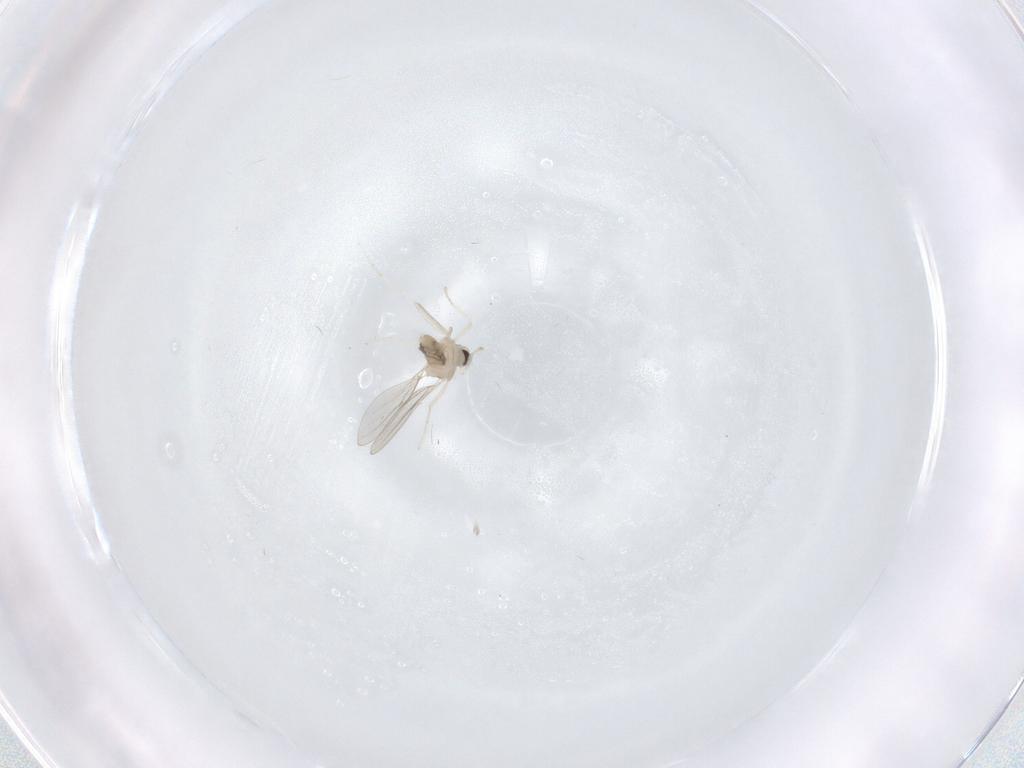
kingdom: Animalia
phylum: Arthropoda
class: Insecta
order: Diptera
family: Cecidomyiidae
